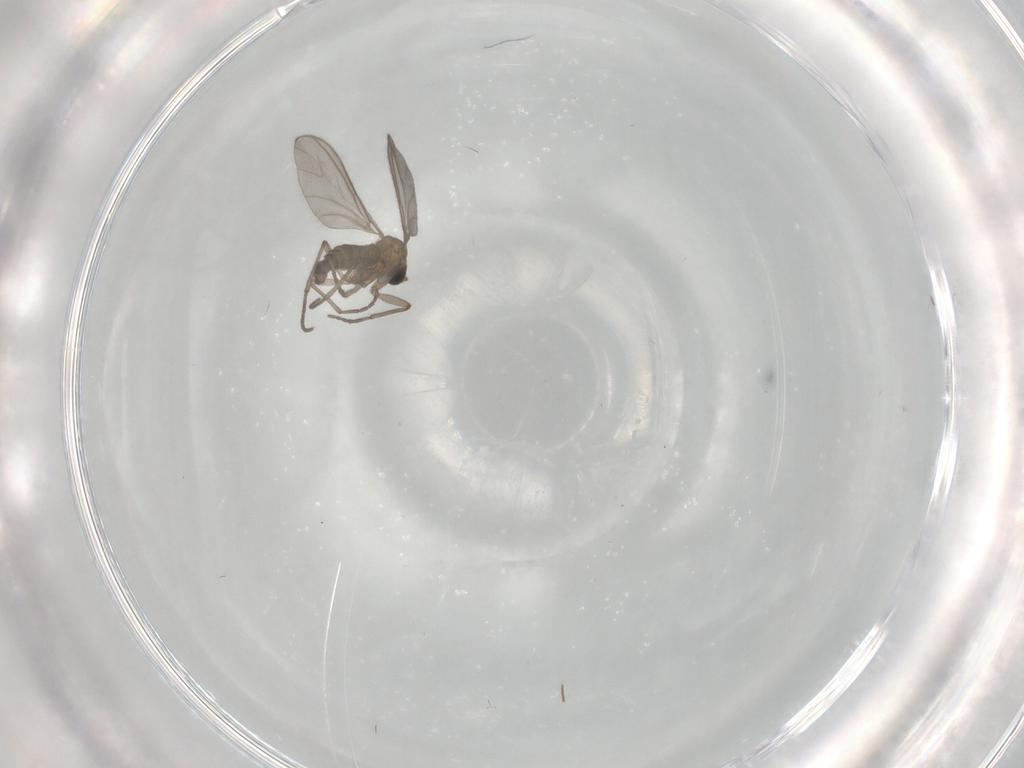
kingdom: Animalia
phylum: Arthropoda
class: Insecta
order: Diptera
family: Sciaridae
